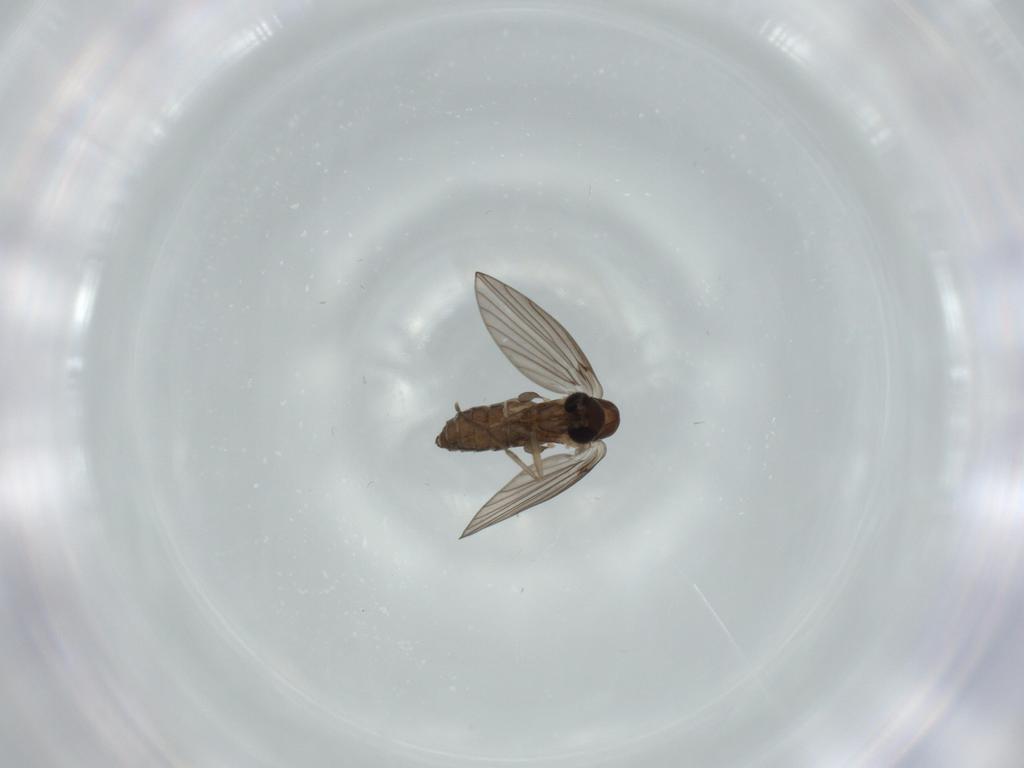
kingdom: Animalia
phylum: Arthropoda
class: Insecta
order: Diptera
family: Psychodidae
